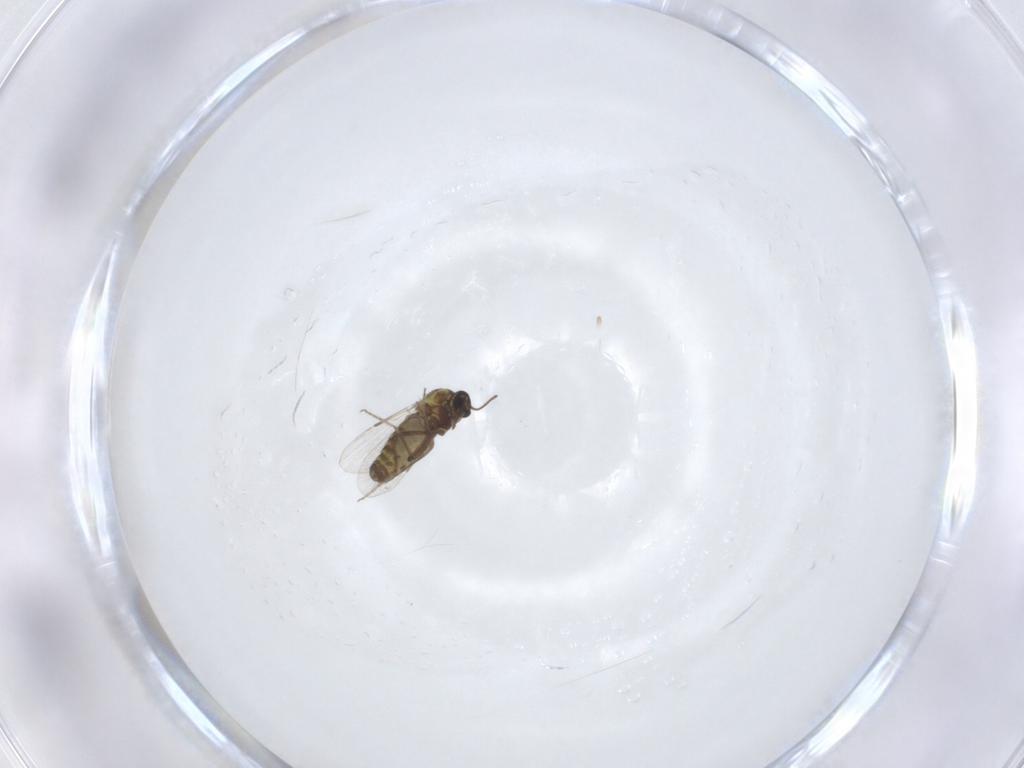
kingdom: Animalia
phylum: Arthropoda
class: Insecta
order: Diptera
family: Ceratopogonidae
